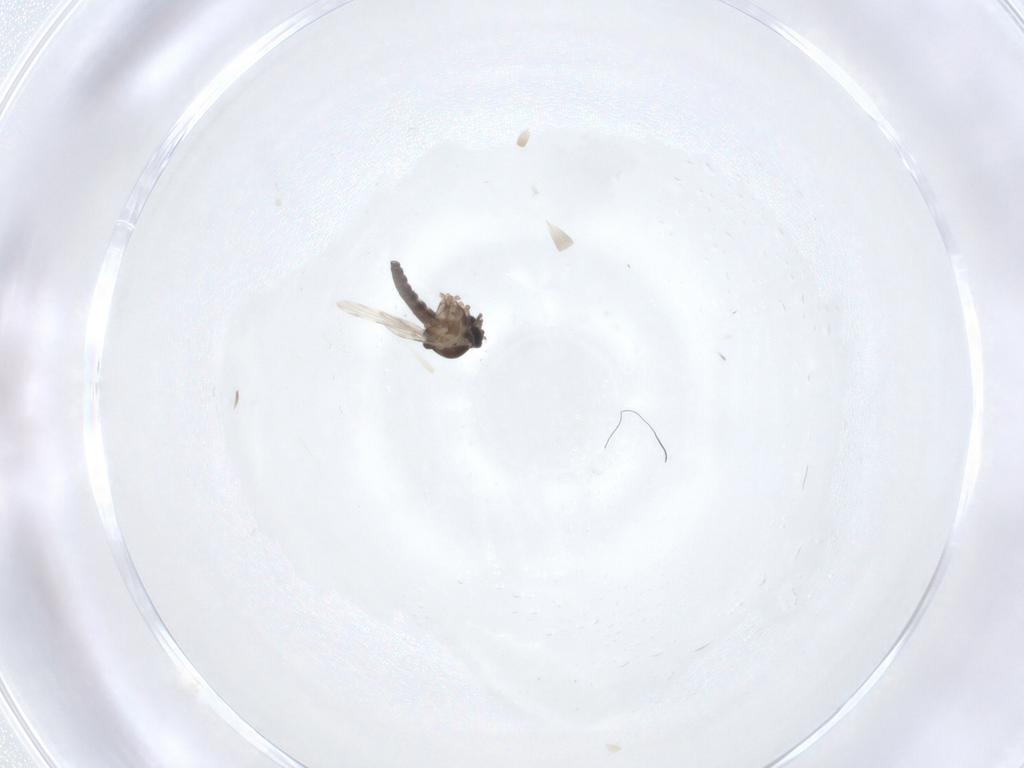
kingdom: Animalia
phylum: Arthropoda
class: Insecta
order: Diptera
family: Ceratopogonidae
